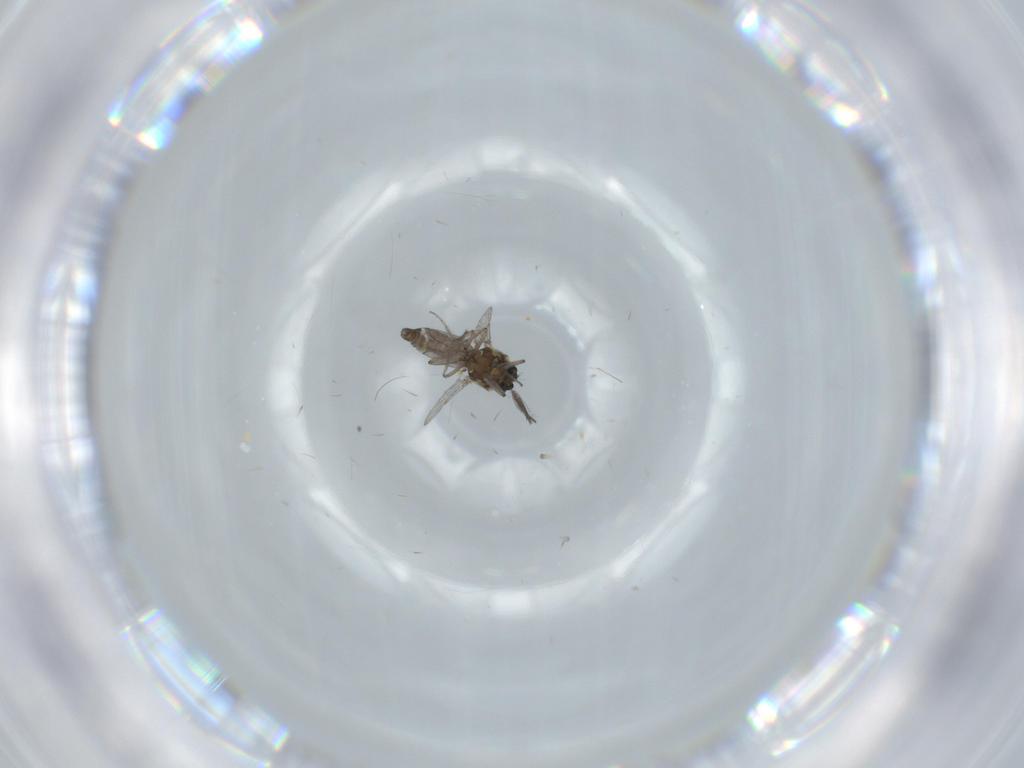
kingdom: Animalia
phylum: Arthropoda
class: Insecta
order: Diptera
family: Ceratopogonidae
